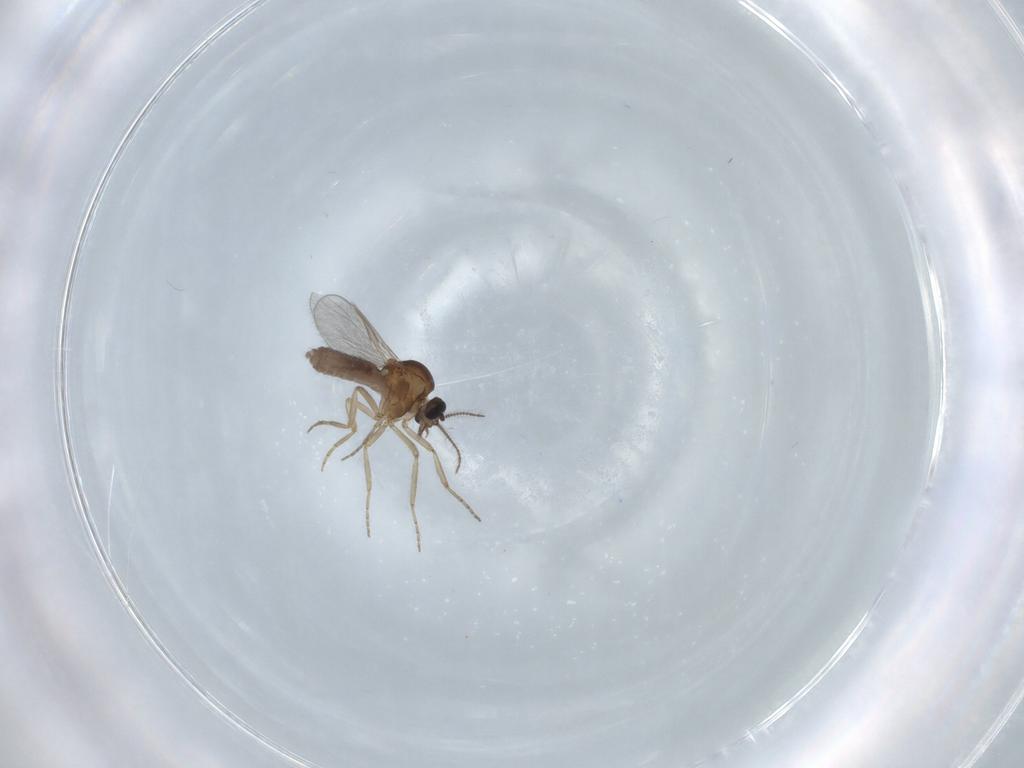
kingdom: Animalia
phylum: Arthropoda
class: Insecta
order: Diptera
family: Chironomidae
